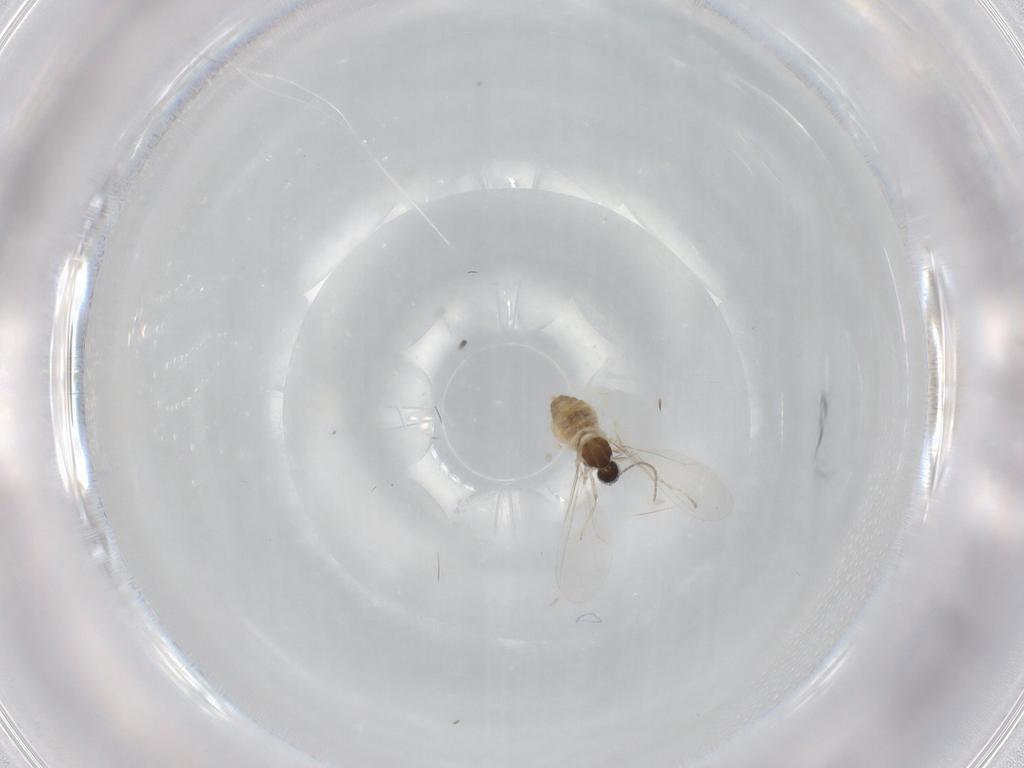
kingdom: Animalia
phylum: Arthropoda
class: Insecta
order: Diptera
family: Cecidomyiidae
